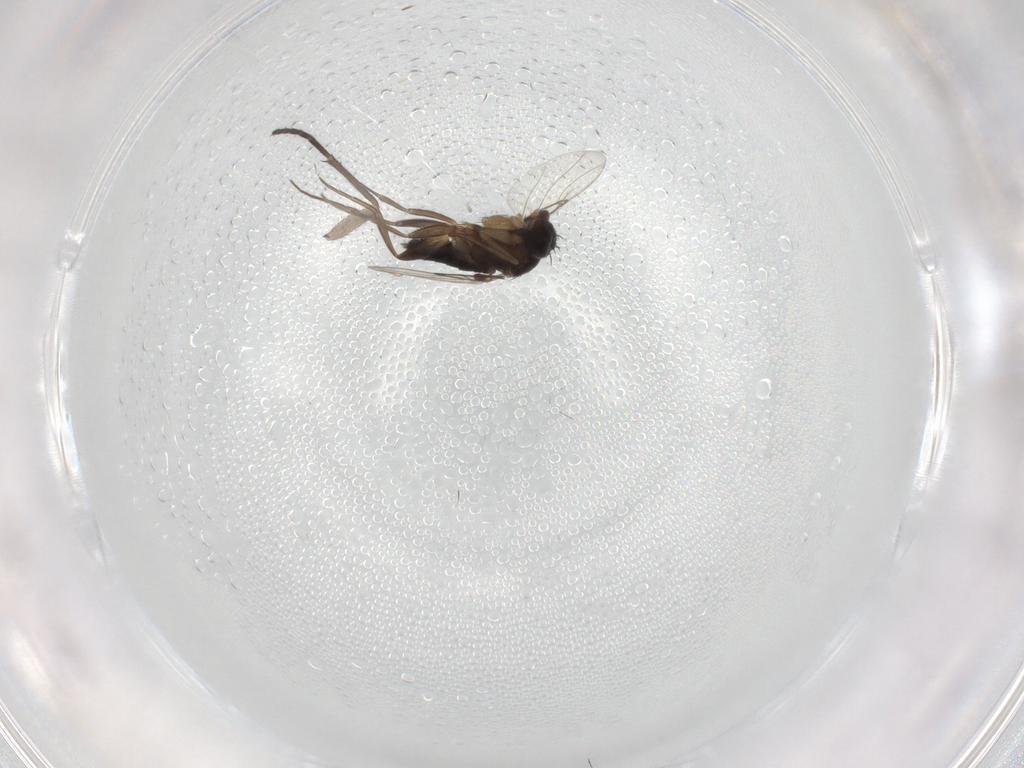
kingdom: Animalia
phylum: Arthropoda
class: Insecta
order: Diptera
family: Phoridae
